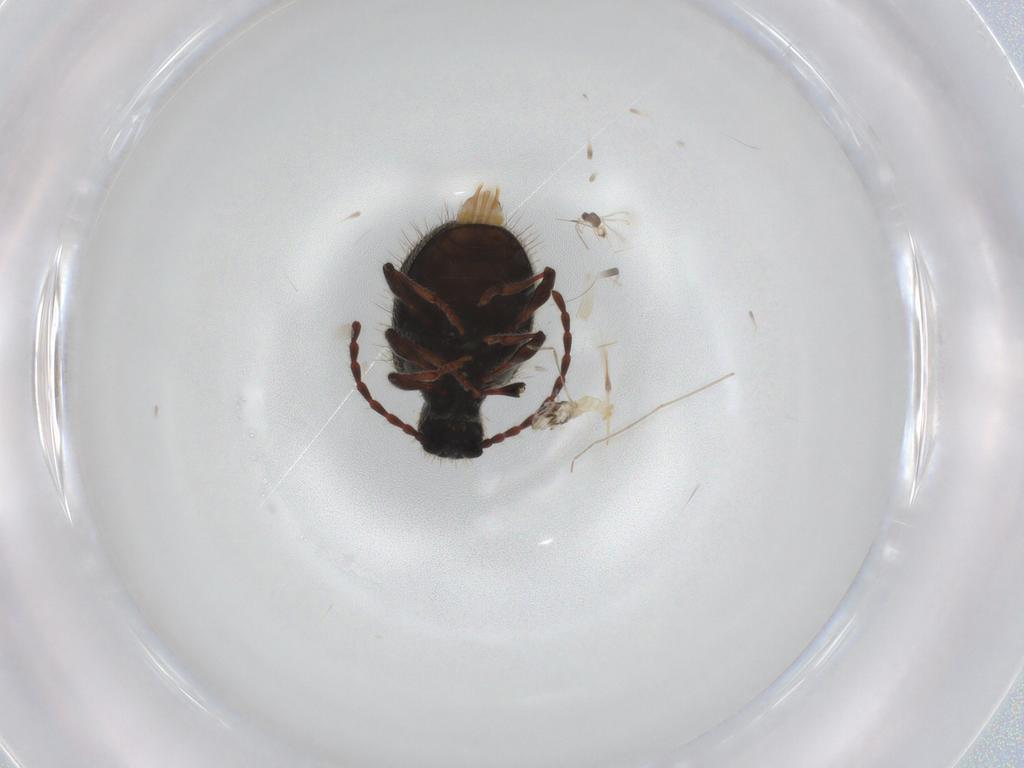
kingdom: Animalia
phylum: Arthropoda
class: Insecta
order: Coleoptera
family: Ptinidae
